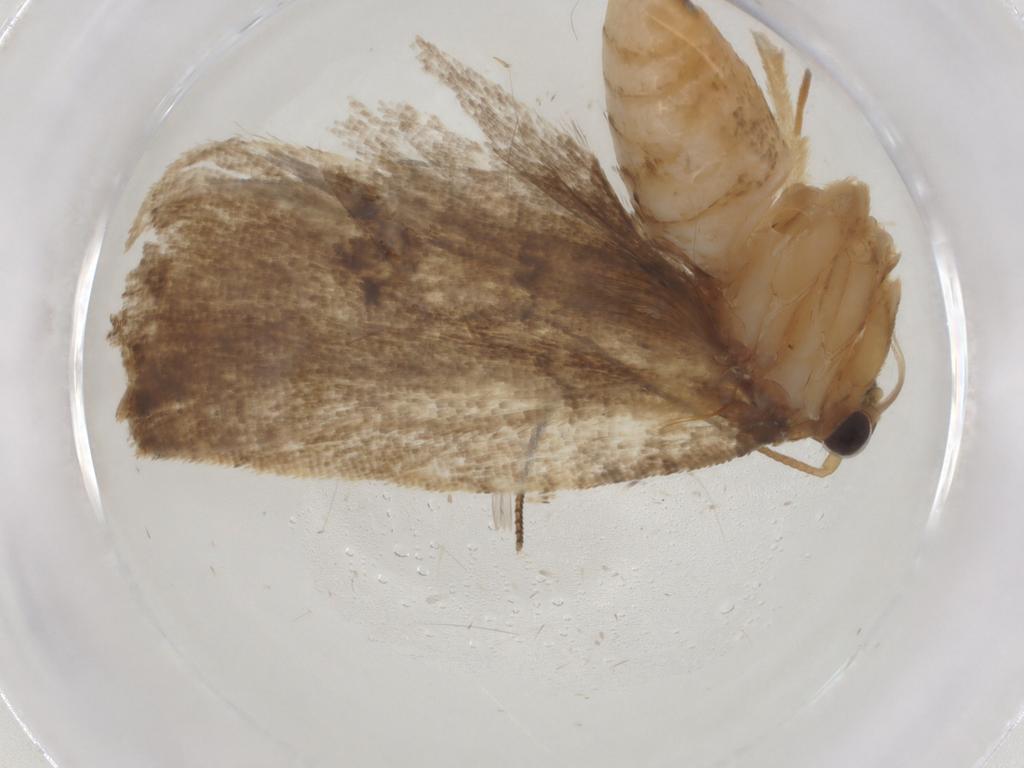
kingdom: Animalia
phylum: Arthropoda
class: Insecta
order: Lepidoptera
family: Tortricidae
